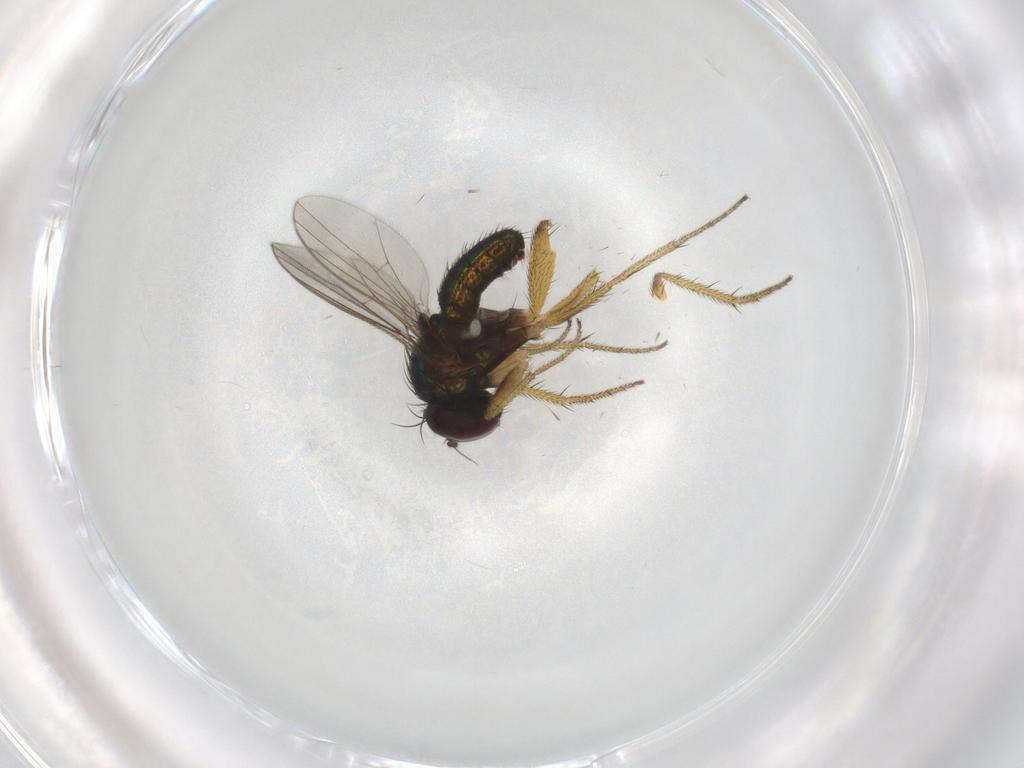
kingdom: Animalia
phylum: Arthropoda
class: Insecta
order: Diptera
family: Dolichopodidae
